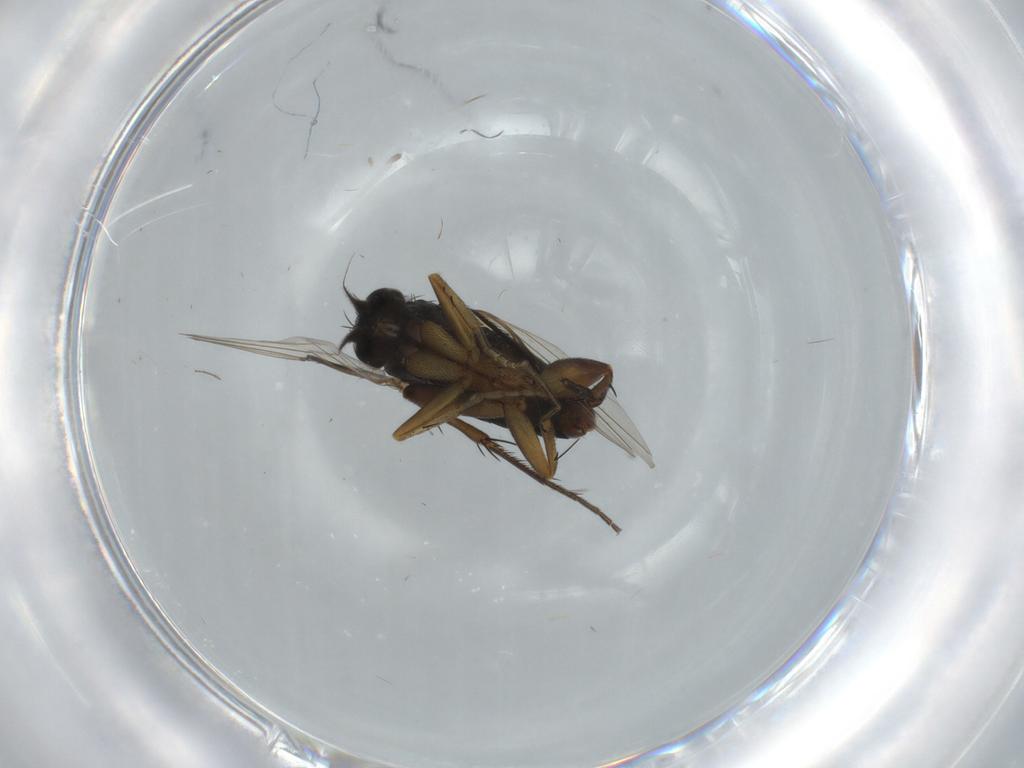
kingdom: Animalia
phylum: Arthropoda
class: Insecta
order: Diptera
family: Phoridae
